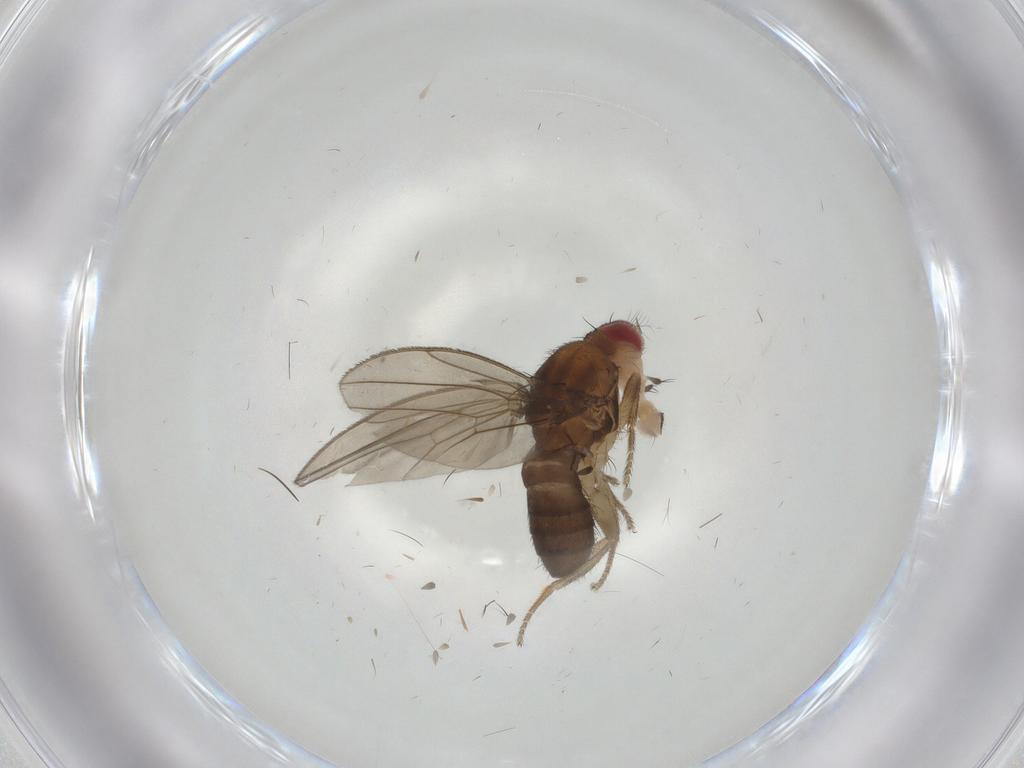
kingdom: Animalia
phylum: Arthropoda
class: Insecta
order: Diptera
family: Drosophilidae
